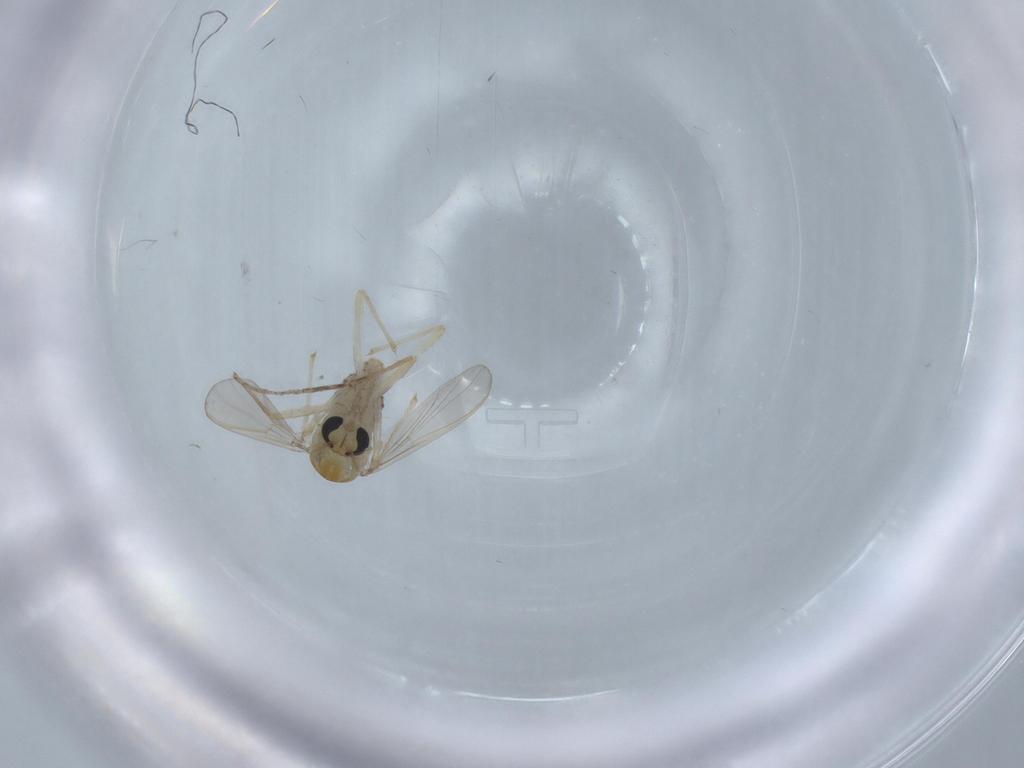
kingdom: Animalia
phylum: Arthropoda
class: Insecta
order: Diptera
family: Chironomidae
